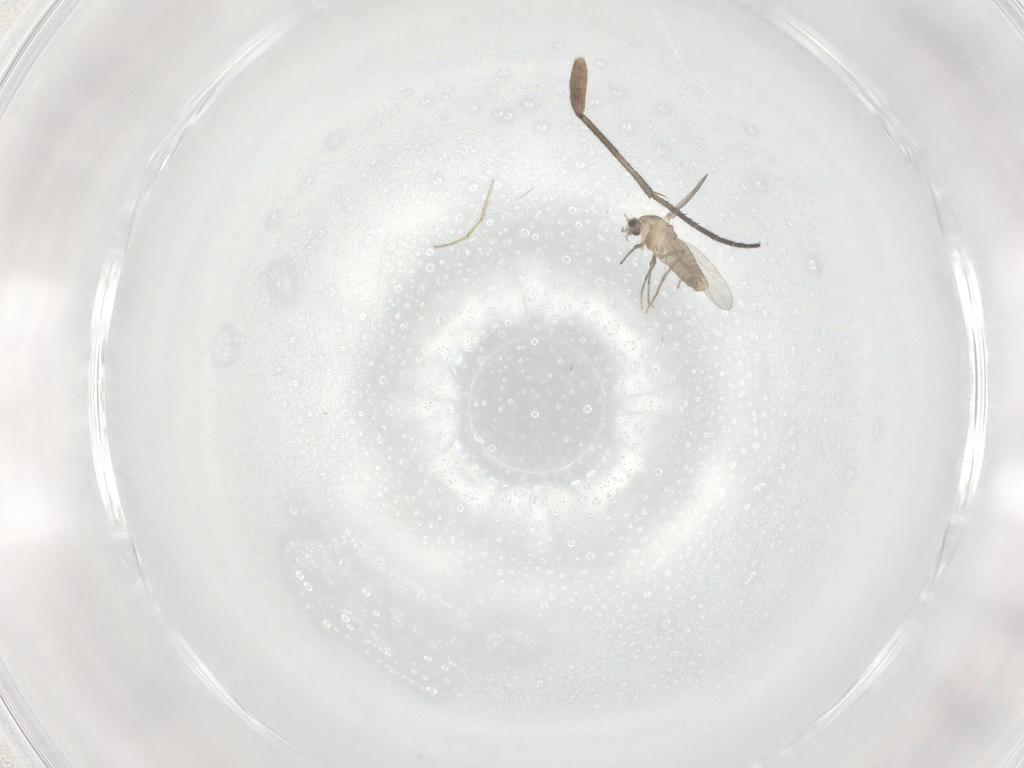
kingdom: Animalia
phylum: Arthropoda
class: Insecta
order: Diptera
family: Chironomidae
